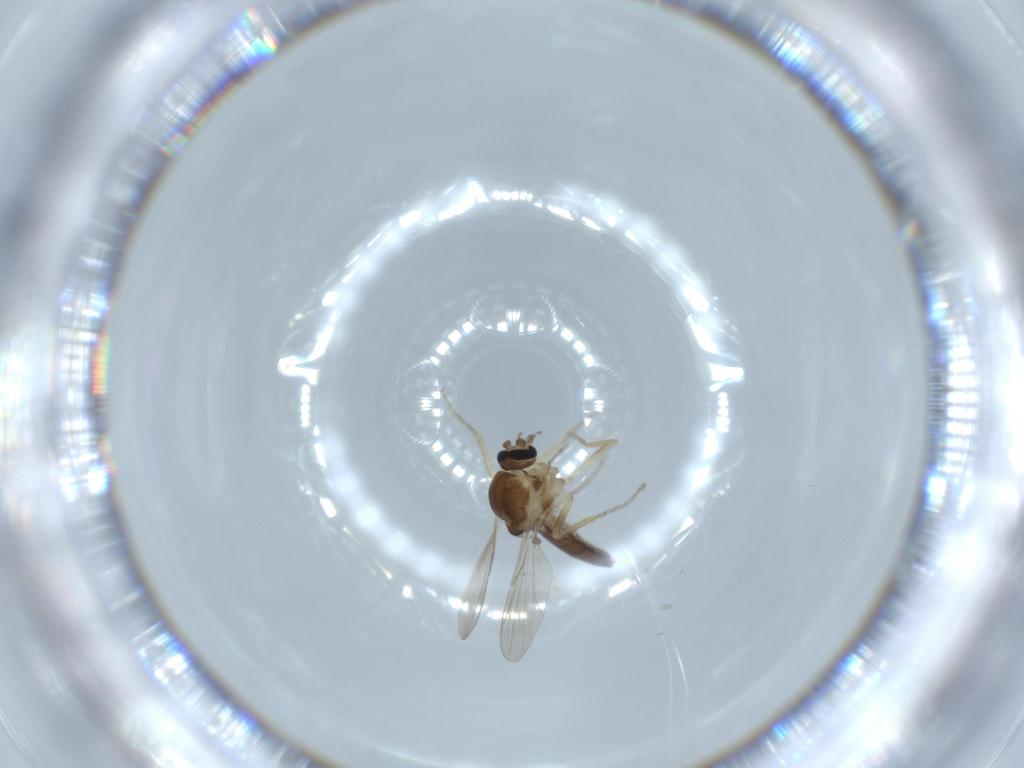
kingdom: Animalia
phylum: Arthropoda
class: Insecta
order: Diptera
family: Ceratopogonidae
